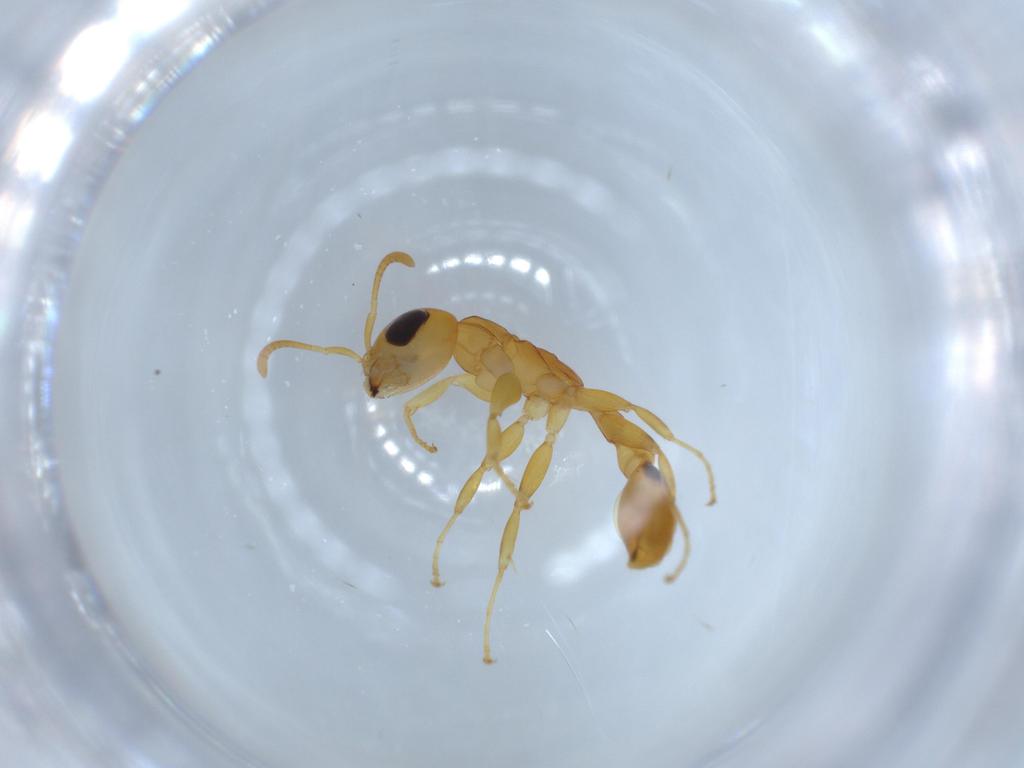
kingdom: Animalia
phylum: Arthropoda
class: Insecta
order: Hymenoptera
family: Formicidae
